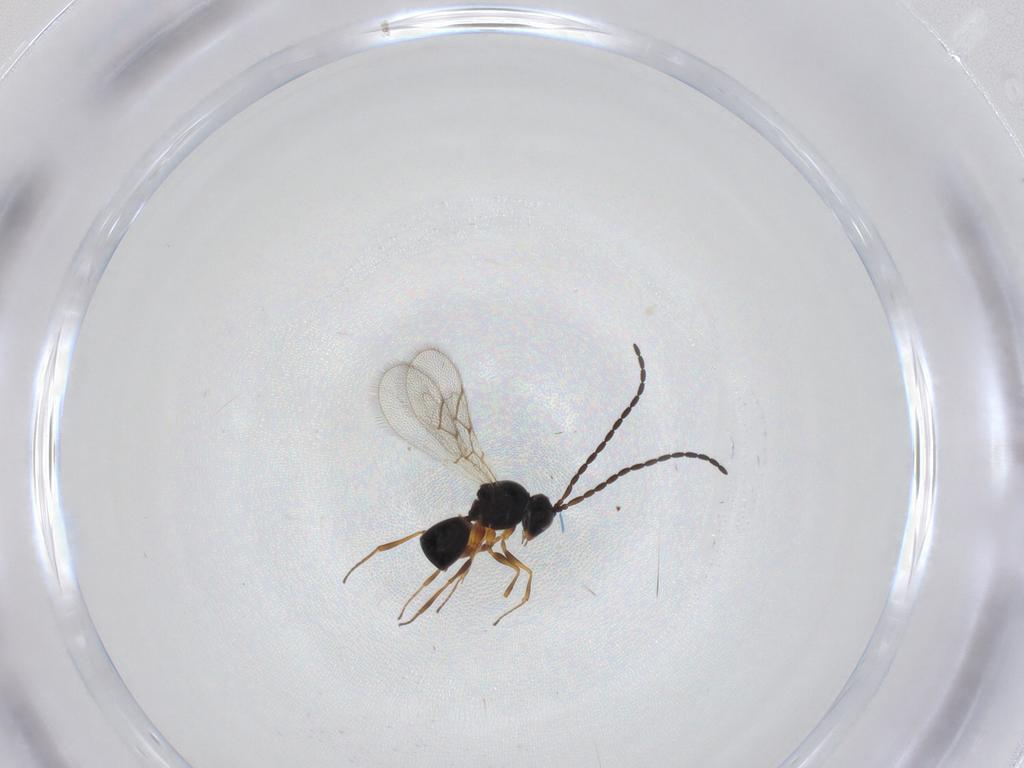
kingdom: Animalia
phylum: Arthropoda
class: Insecta
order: Hymenoptera
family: Figitidae
